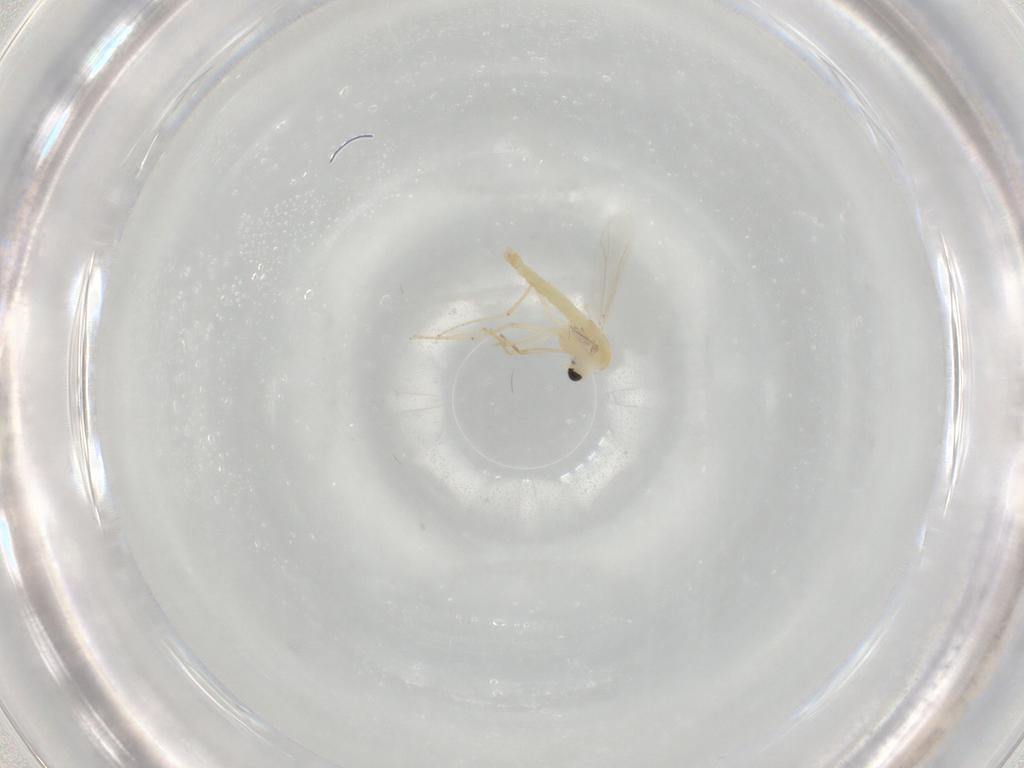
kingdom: Animalia
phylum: Arthropoda
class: Insecta
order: Diptera
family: Chironomidae
